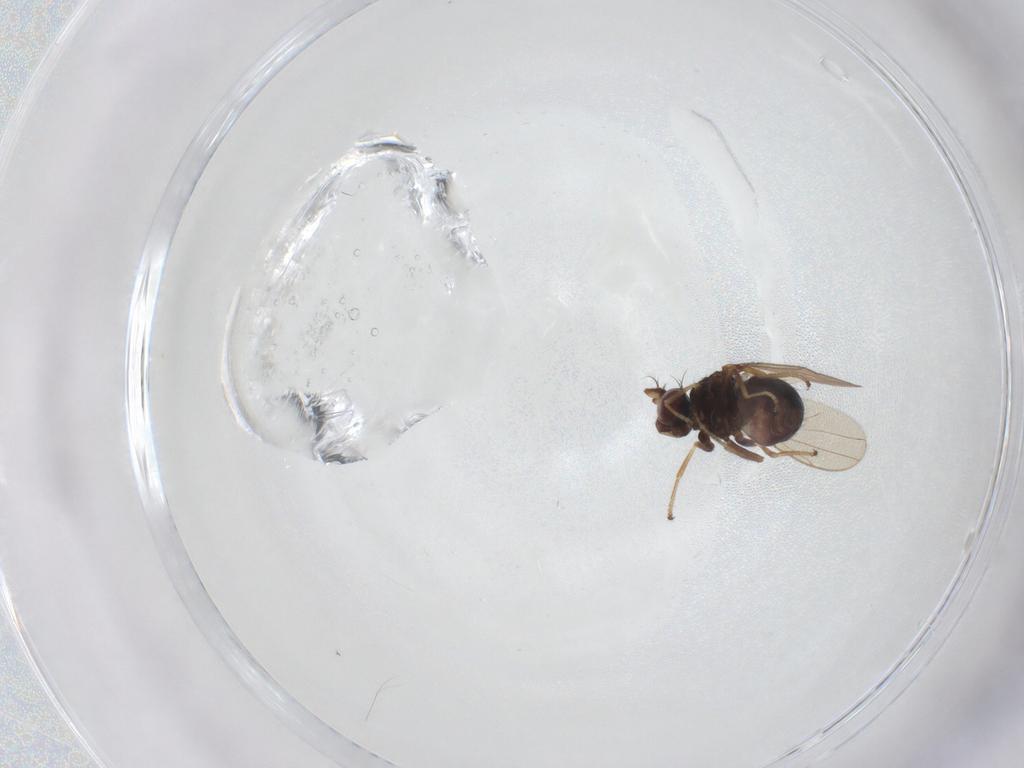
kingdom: Animalia
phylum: Arthropoda
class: Insecta
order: Diptera
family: Ephydridae
